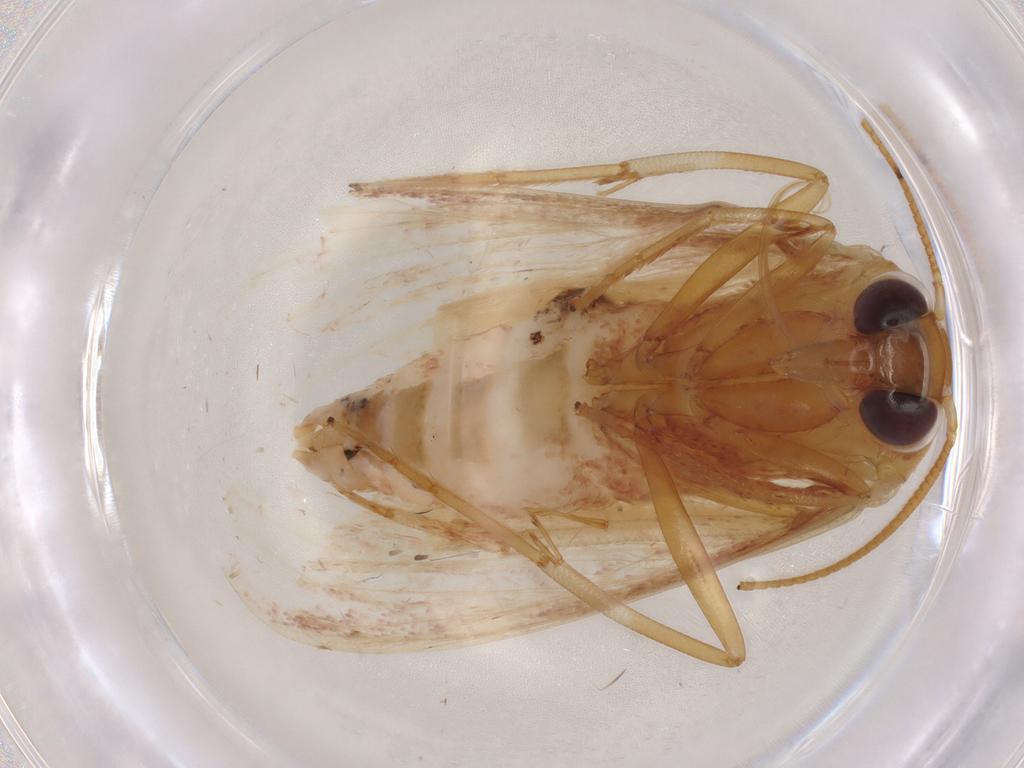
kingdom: Animalia
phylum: Arthropoda
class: Insecta
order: Lepidoptera
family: Pyralidae
